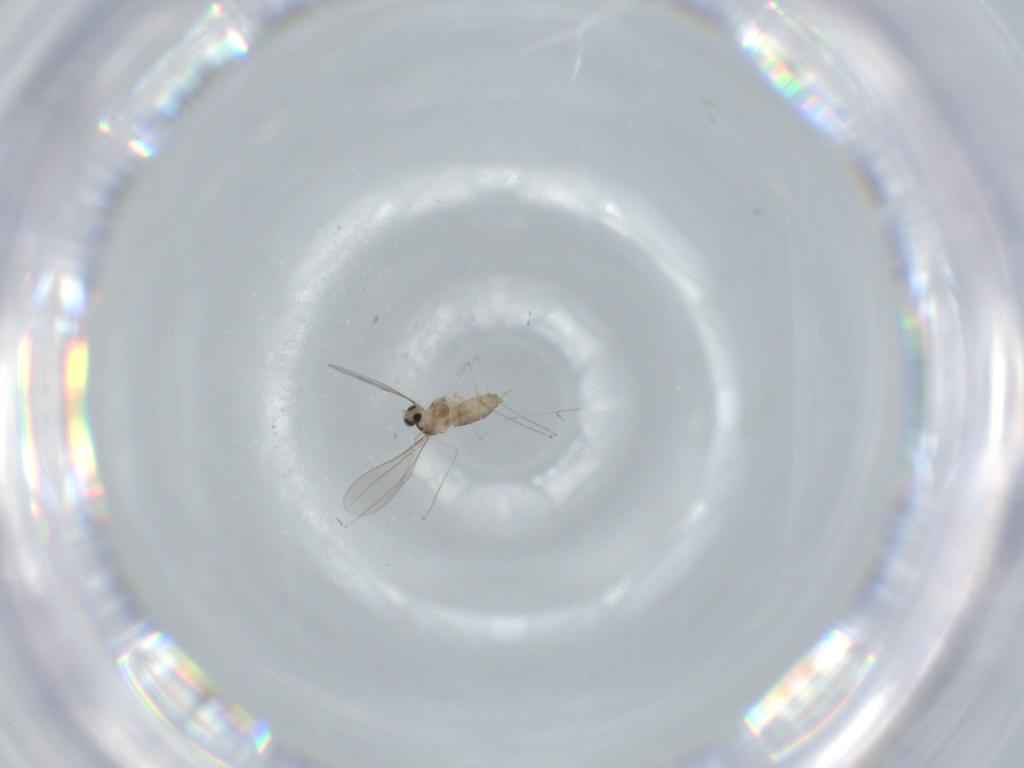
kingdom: Animalia
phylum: Arthropoda
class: Insecta
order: Diptera
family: Cecidomyiidae
